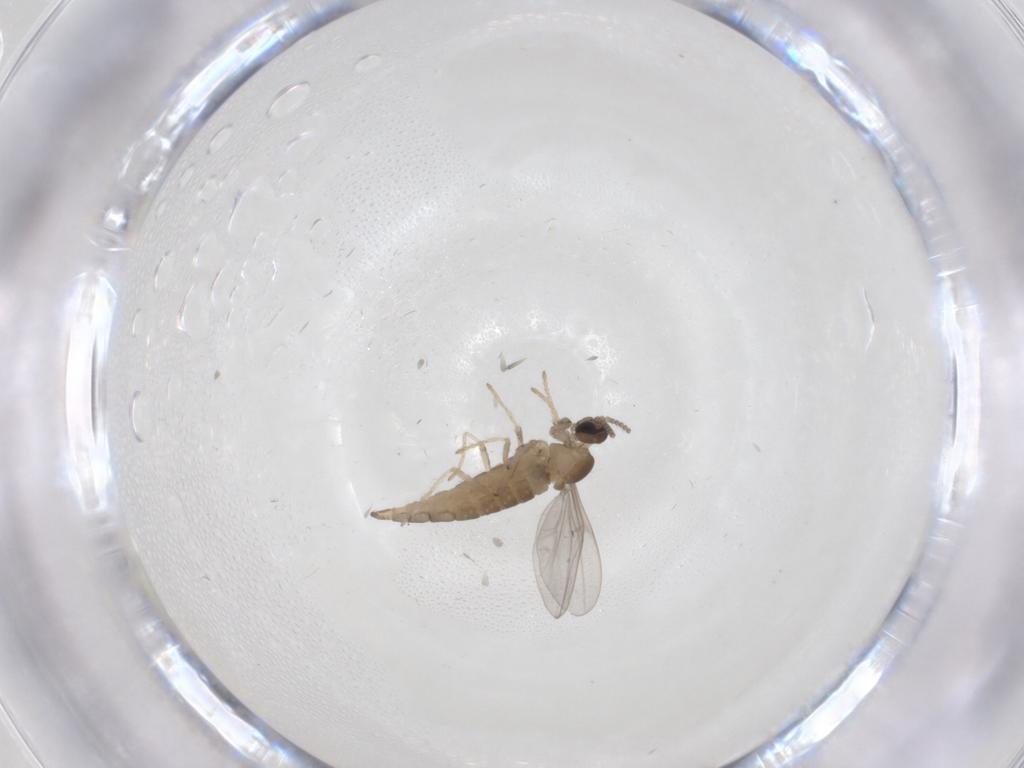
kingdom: Animalia
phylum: Arthropoda
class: Insecta
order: Diptera
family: Cecidomyiidae
